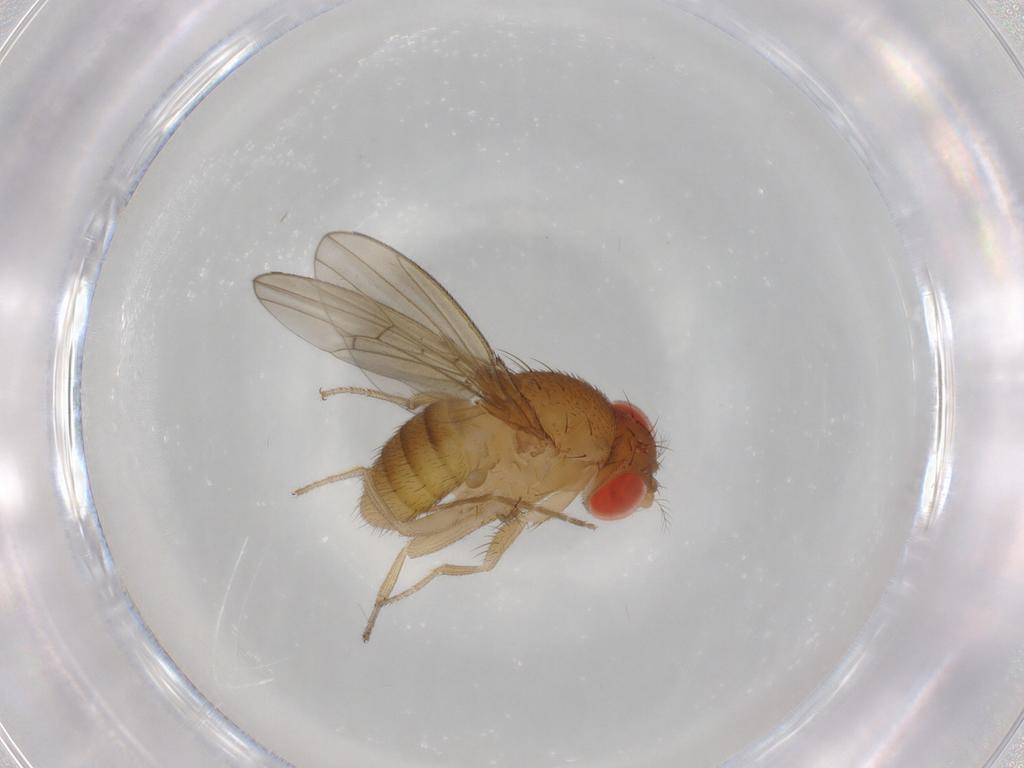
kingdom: Animalia
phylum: Arthropoda
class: Insecta
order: Diptera
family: Drosophilidae
